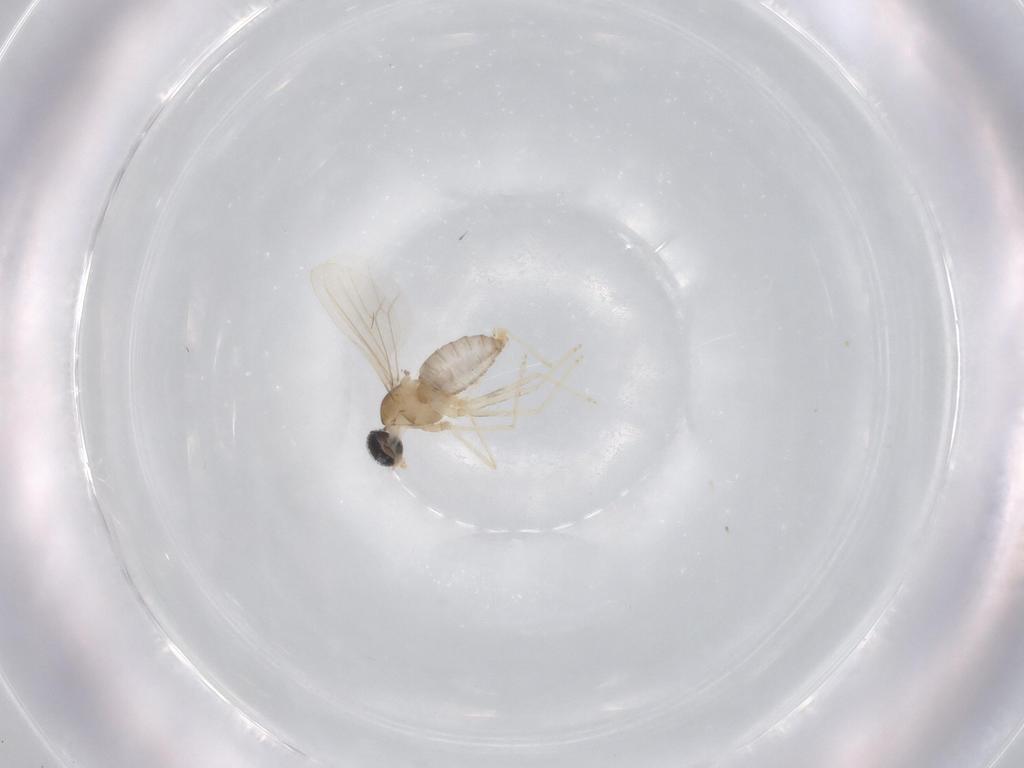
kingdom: Animalia
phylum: Arthropoda
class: Insecta
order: Diptera
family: Cecidomyiidae
